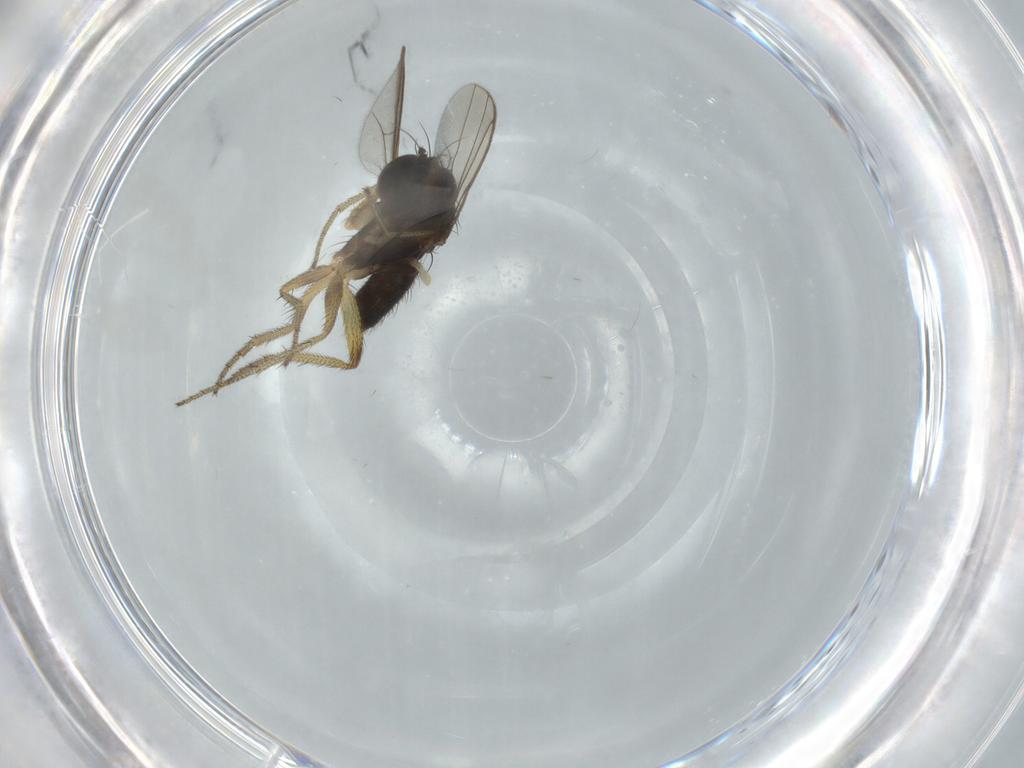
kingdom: Animalia
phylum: Arthropoda
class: Insecta
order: Diptera
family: Dolichopodidae
